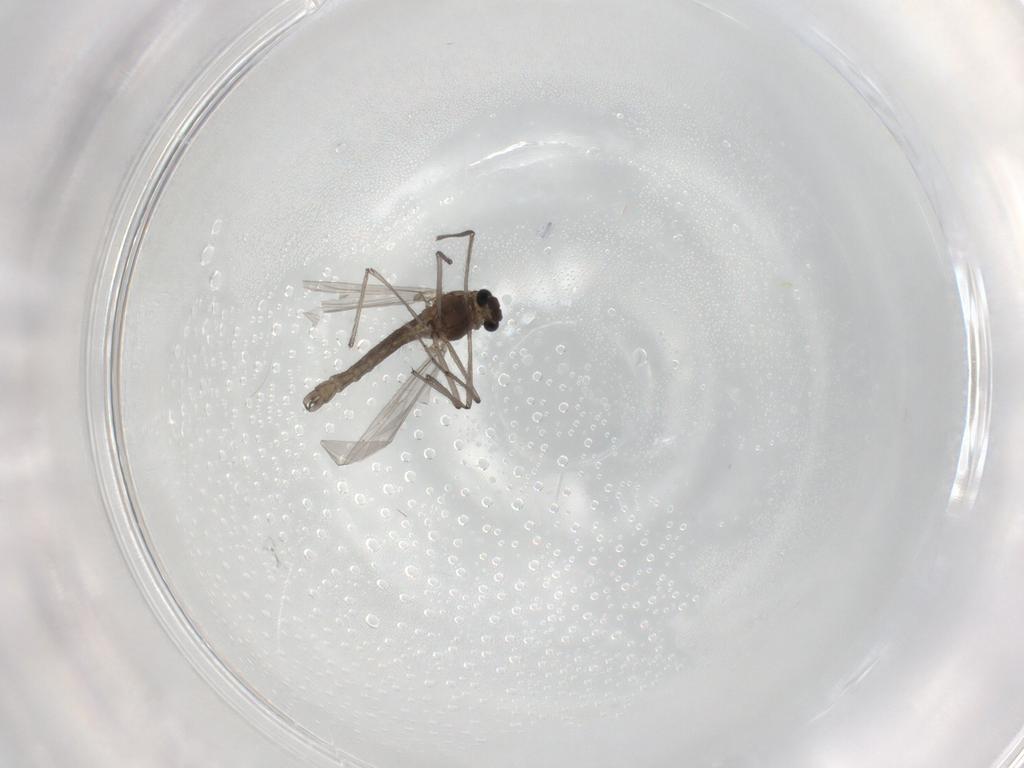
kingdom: Animalia
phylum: Arthropoda
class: Insecta
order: Diptera
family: Chironomidae
